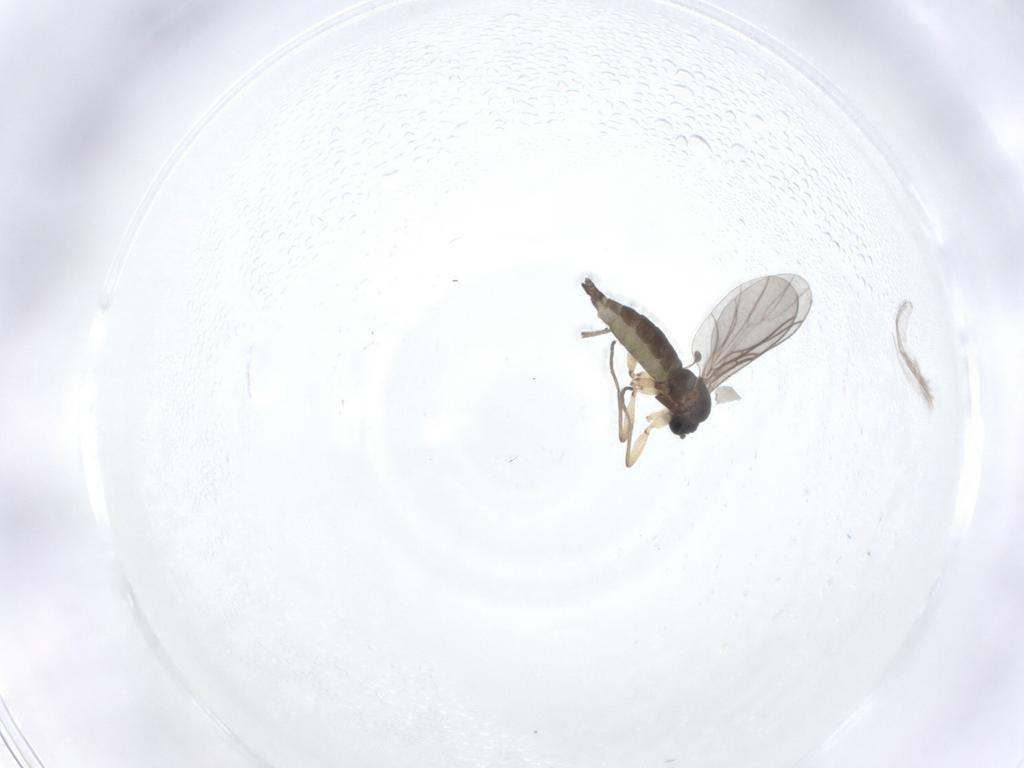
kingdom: Animalia
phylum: Arthropoda
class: Insecta
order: Diptera
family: Sciaridae
